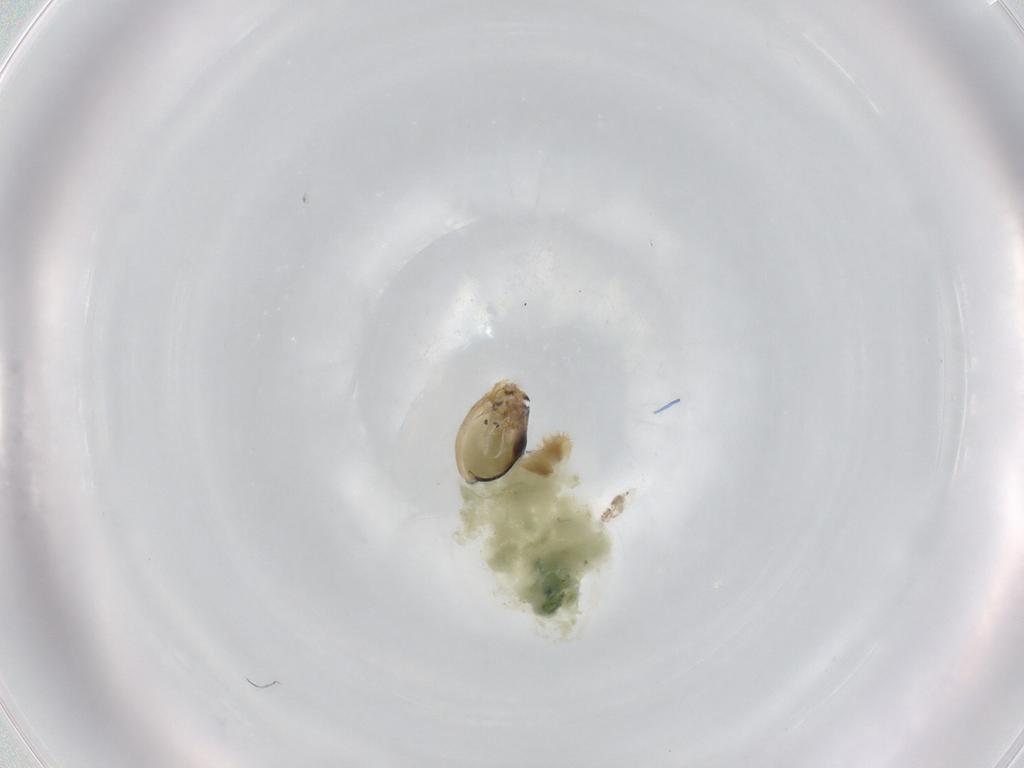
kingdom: Animalia
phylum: Arthropoda
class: Insecta
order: Diptera
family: Chironomidae
